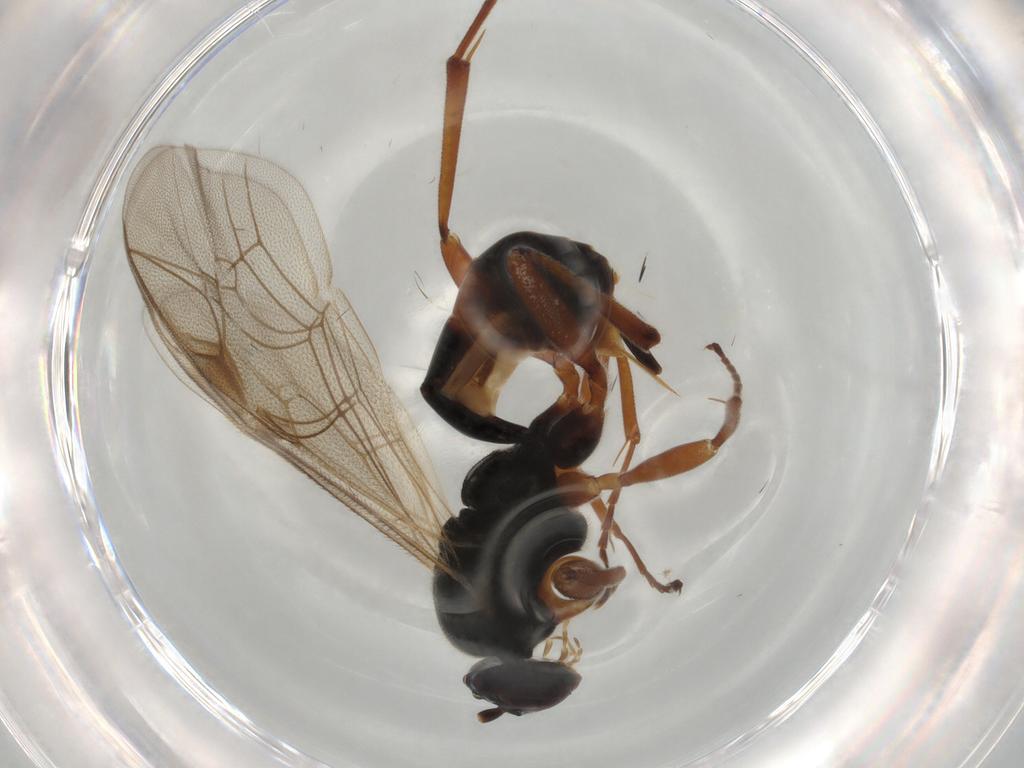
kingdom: Animalia
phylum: Arthropoda
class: Insecta
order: Hymenoptera
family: Ichneumonidae
